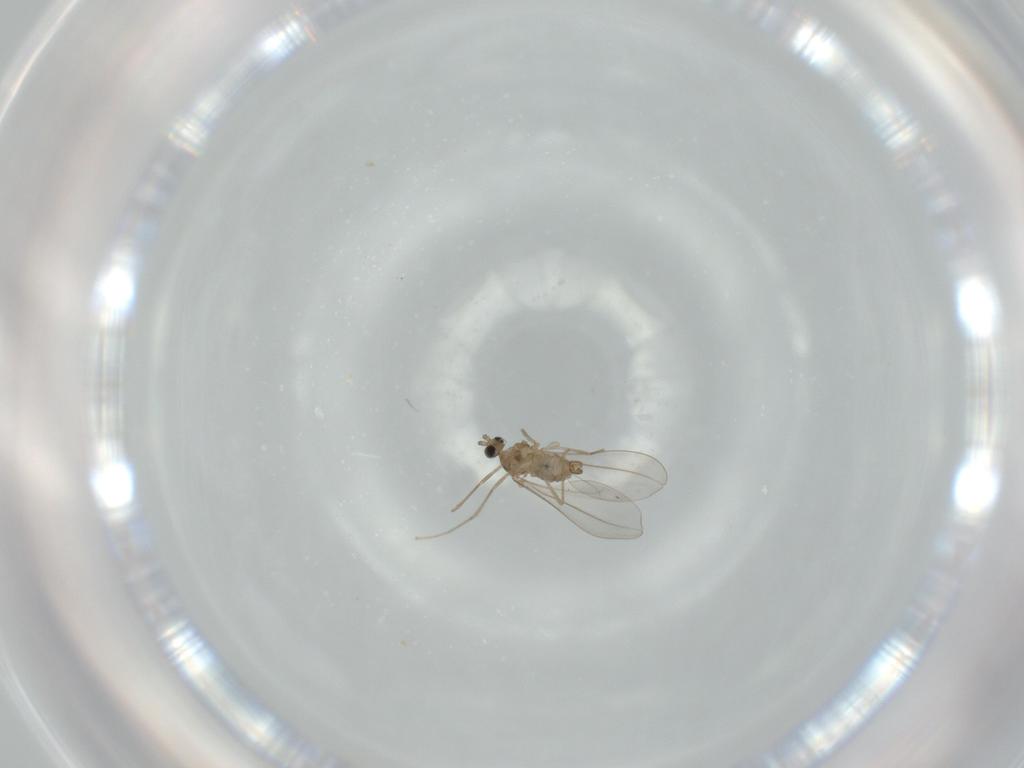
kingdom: Animalia
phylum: Arthropoda
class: Insecta
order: Diptera
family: Cecidomyiidae
